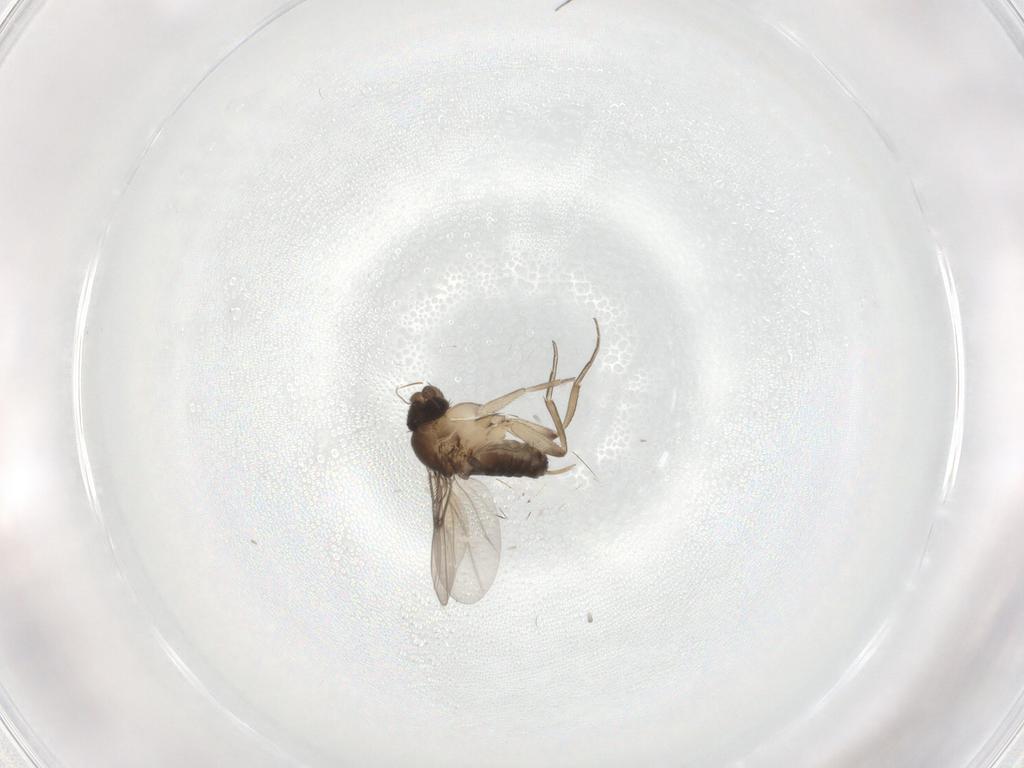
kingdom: Animalia
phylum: Arthropoda
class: Insecta
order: Diptera
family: Phoridae
